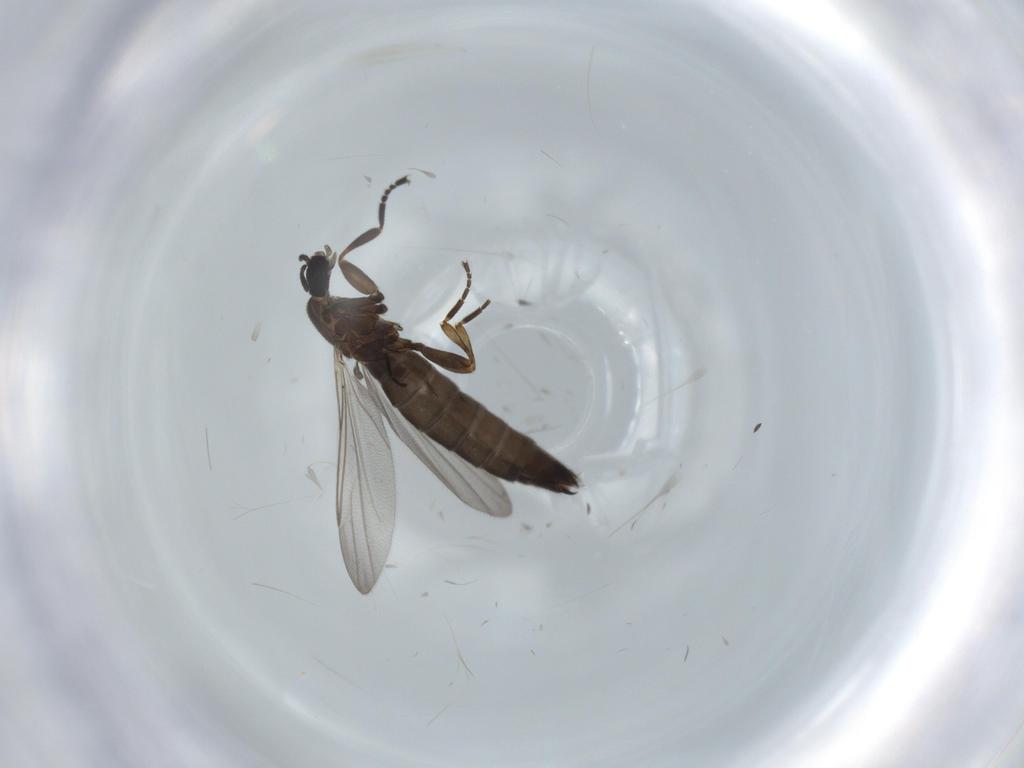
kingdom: Animalia
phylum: Arthropoda
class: Insecta
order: Diptera
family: Scatopsidae
